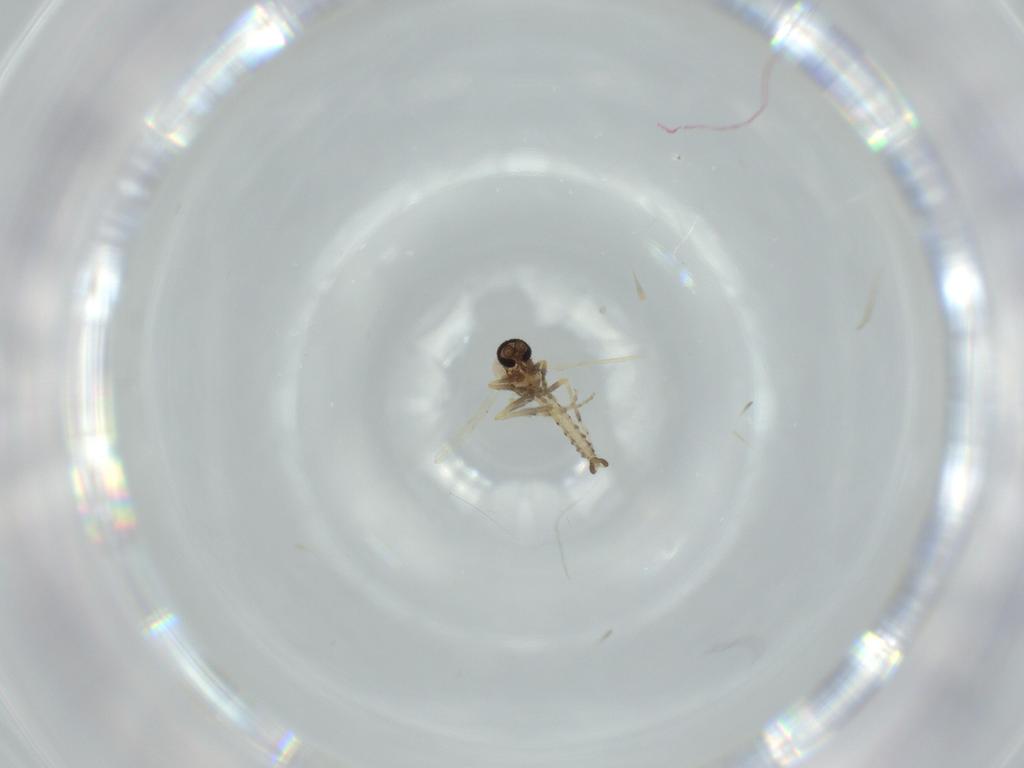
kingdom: Animalia
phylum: Arthropoda
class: Insecta
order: Diptera
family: Ceratopogonidae
